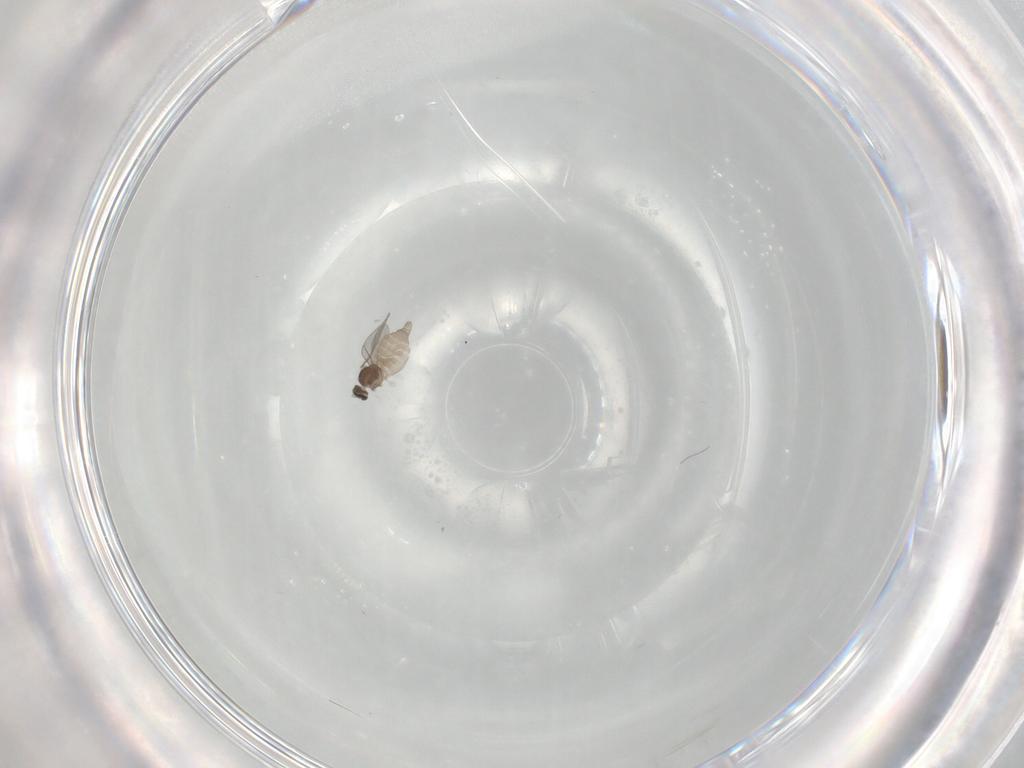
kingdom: Animalia
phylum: Arthropoda
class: Insecta
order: Diptera
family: Cecidomyiidae
